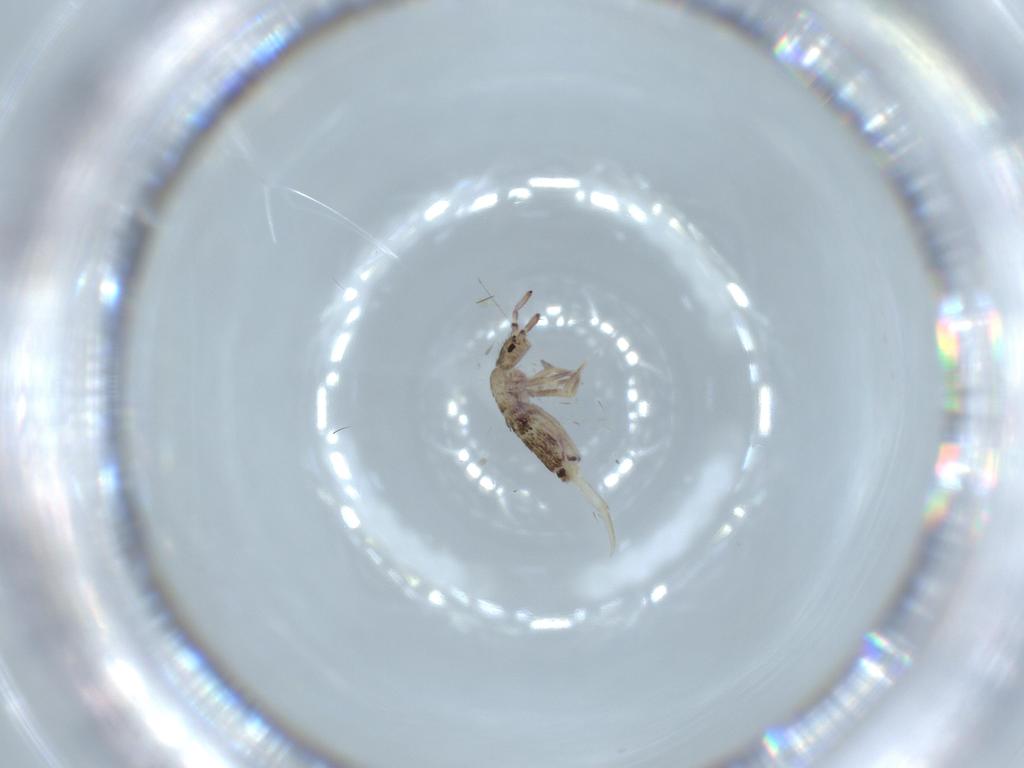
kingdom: Animalia
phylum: Arthropoda
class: Collembola
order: Entomobryomorpha
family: Entomobryidae
